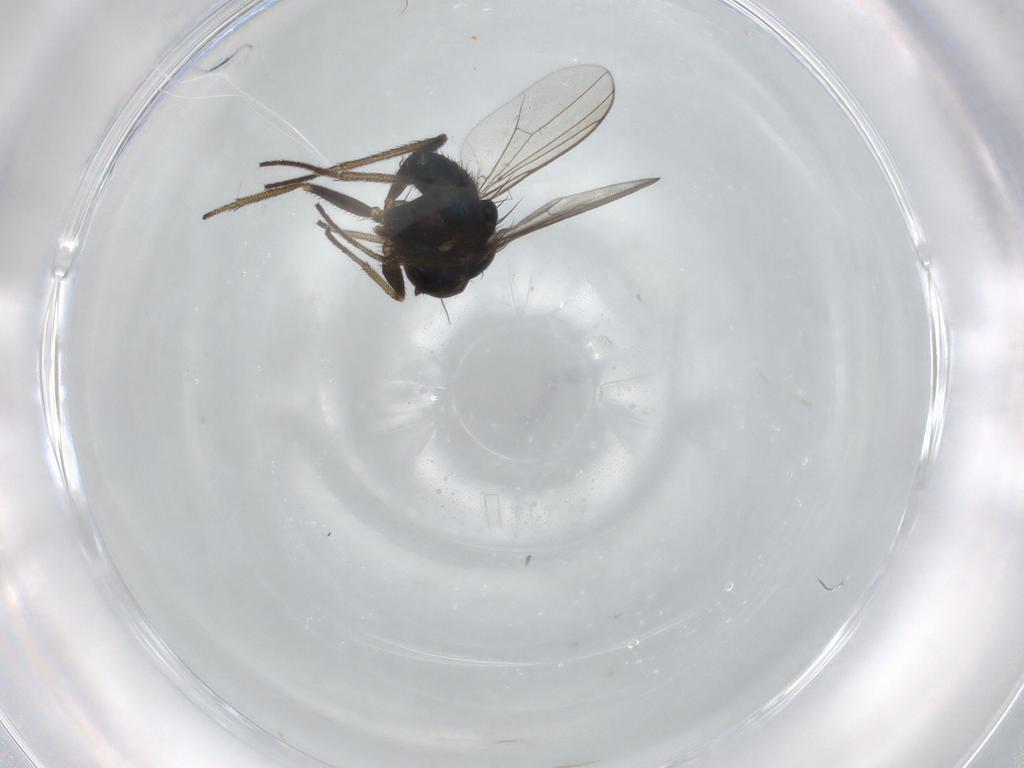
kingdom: Animalia
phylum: Arthropoda
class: Insecta
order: Diptera
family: Dolichopodidae
